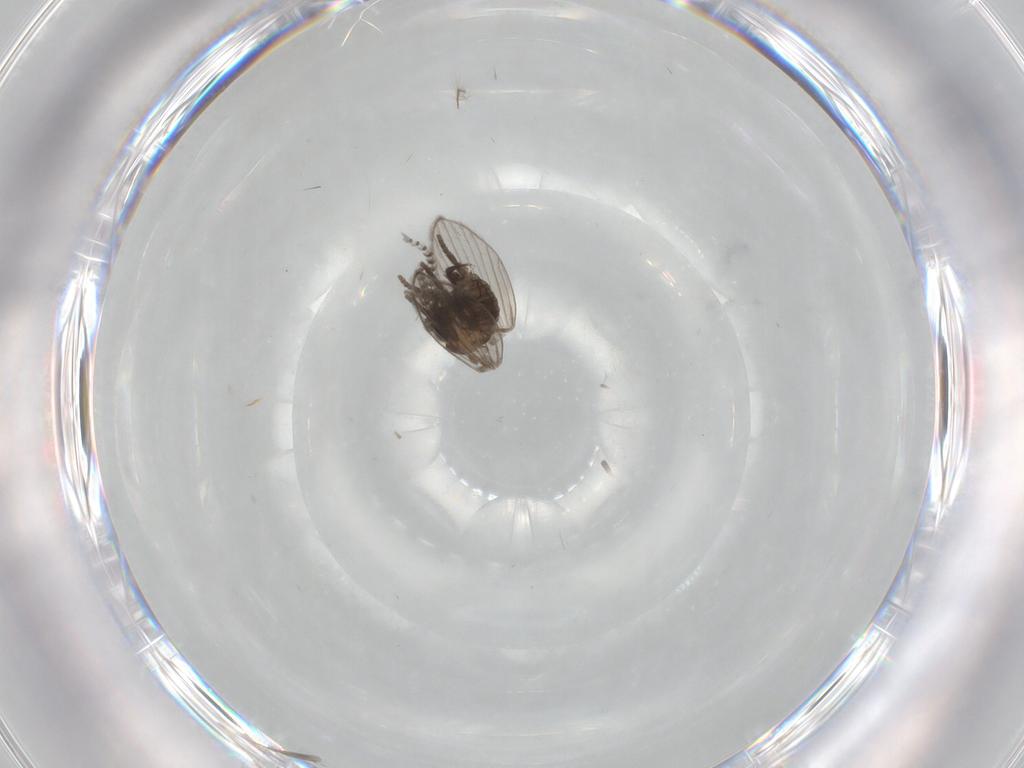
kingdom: Animalia
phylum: Arthropoda
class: Insecta
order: Diptera
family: Psychodidae
